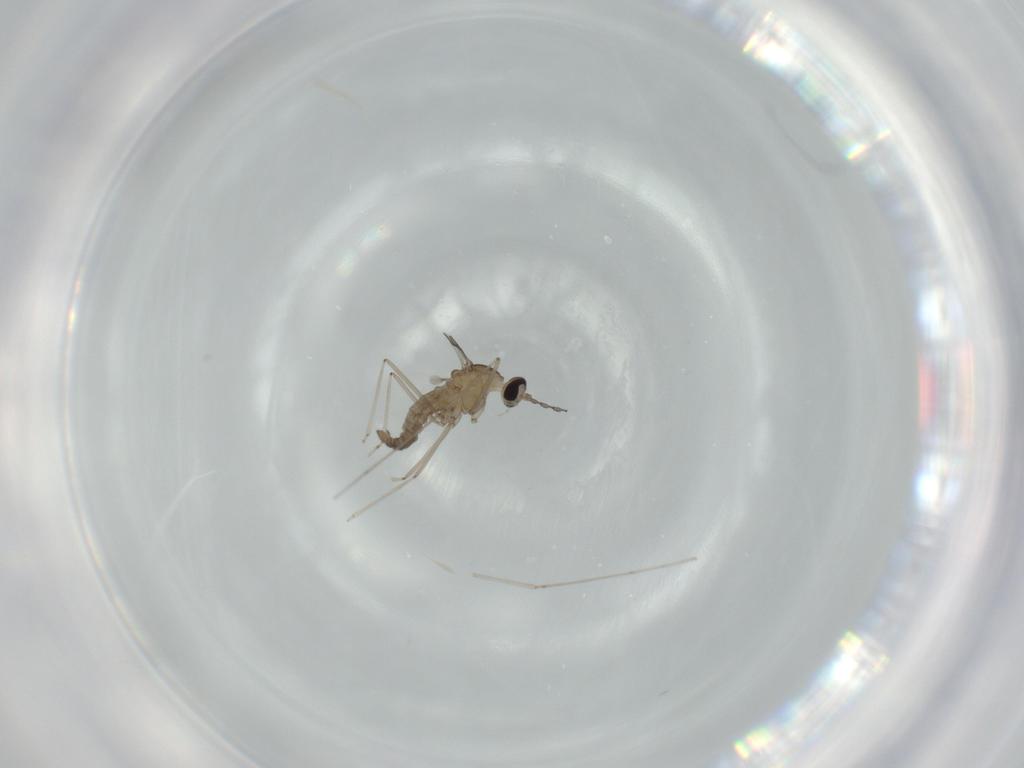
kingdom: Animalia
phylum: Arthropoda
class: Insecta
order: Diptera
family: Cecidomyiidae
